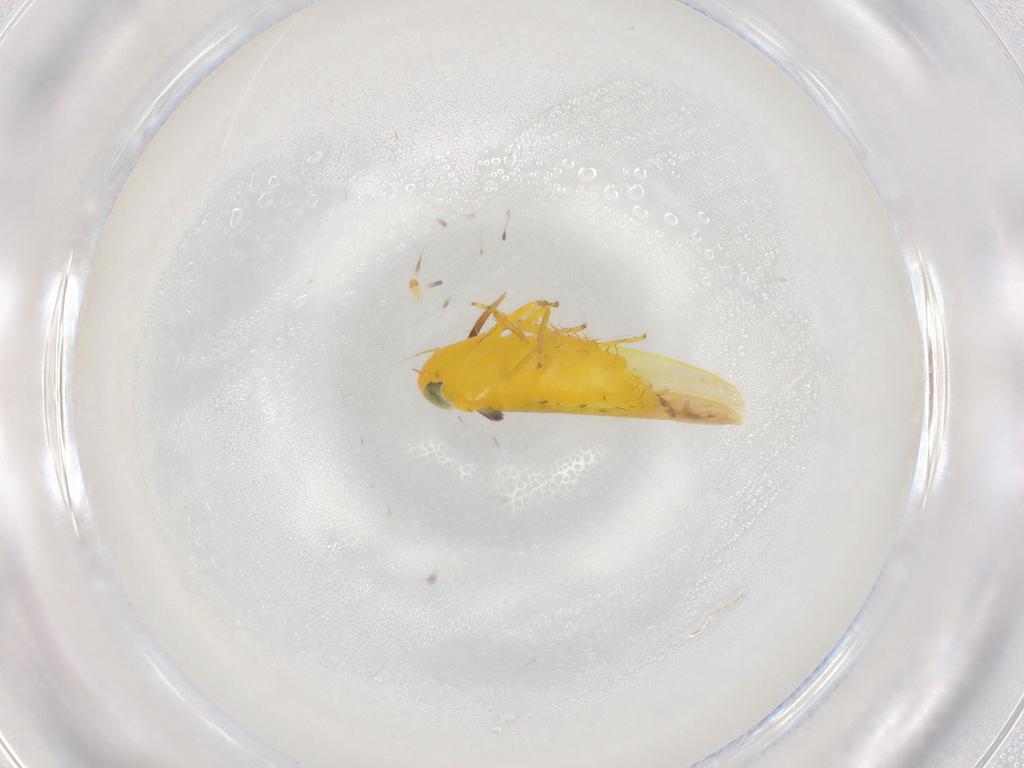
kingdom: Animalia
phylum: Arthropoda
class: Insecta
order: Hemiptera
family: Cicadellidae
